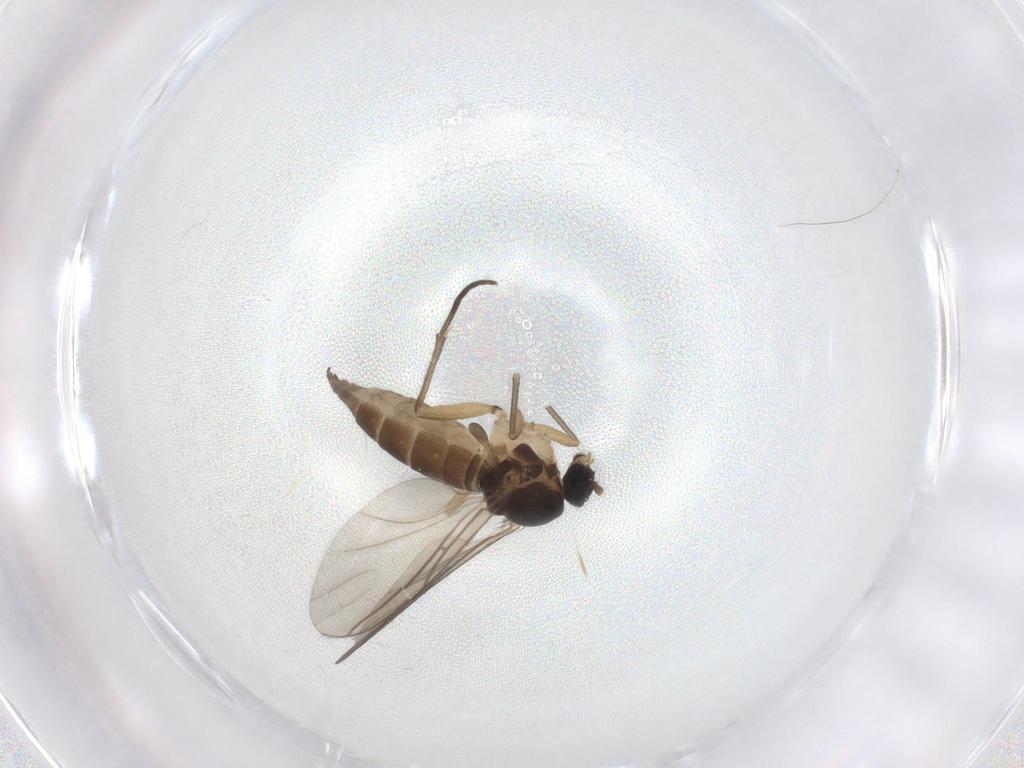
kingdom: Animalia
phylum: Arthropoda
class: Insecta
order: Diptera
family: Sciaridae
